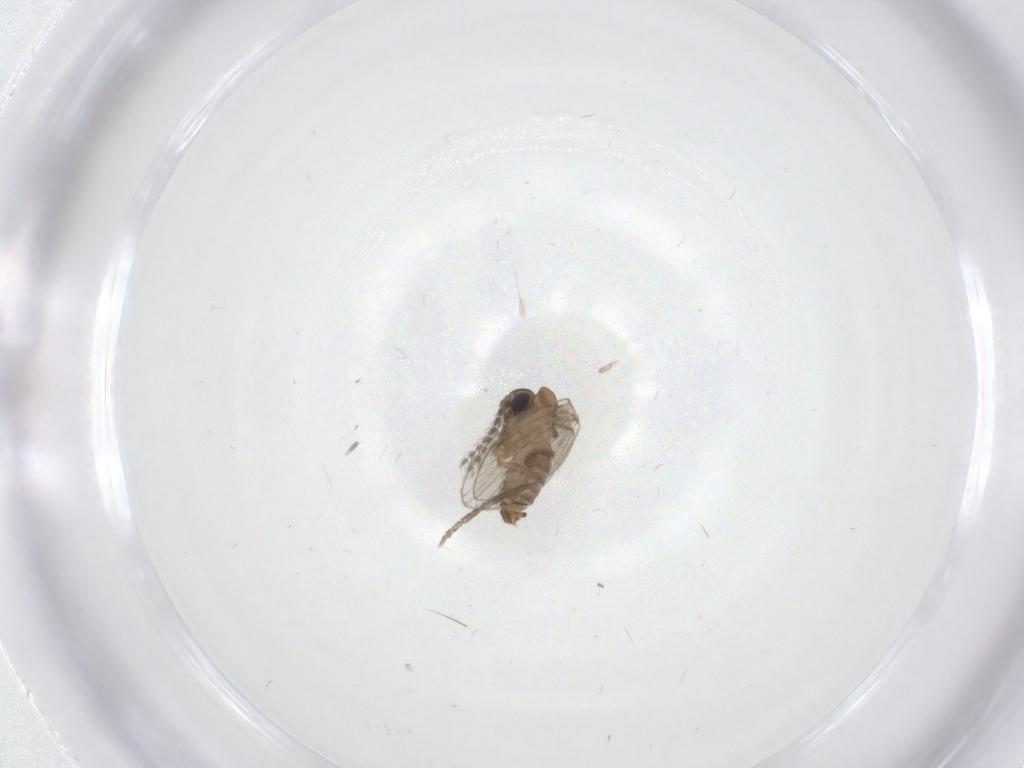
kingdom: Animalia
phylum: Arthropoda
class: Insecta
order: Diptera
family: Psychodidae
